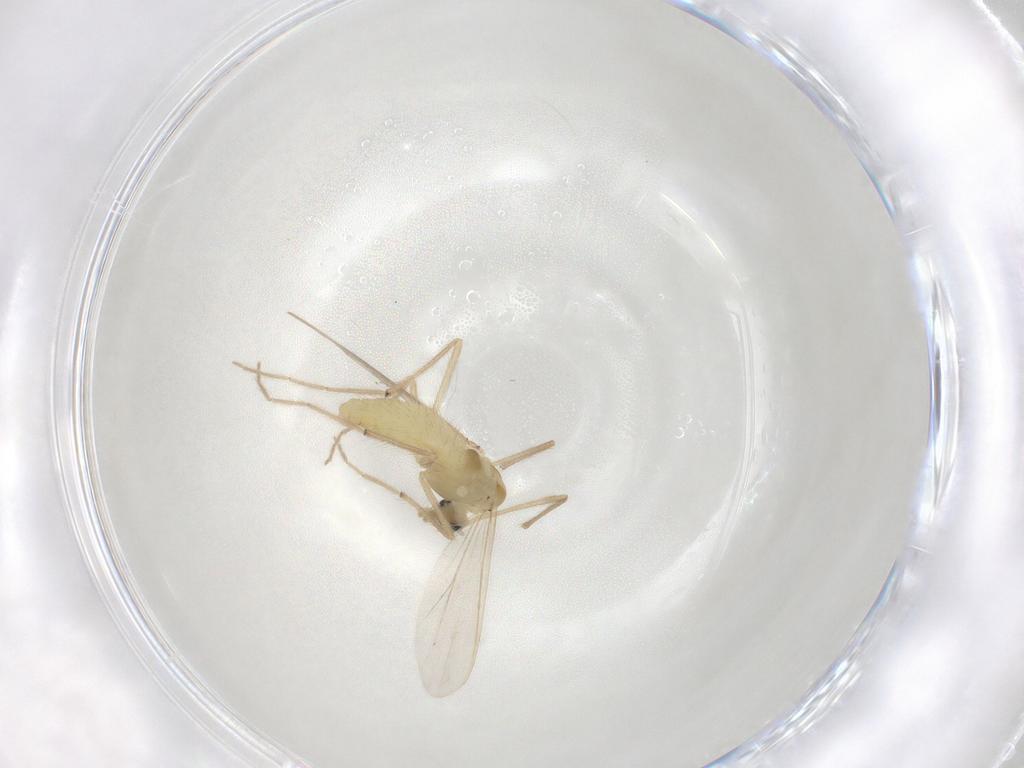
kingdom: Animalia
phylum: Arthropoda
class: Insecta
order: Diptera
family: Chironomidae
